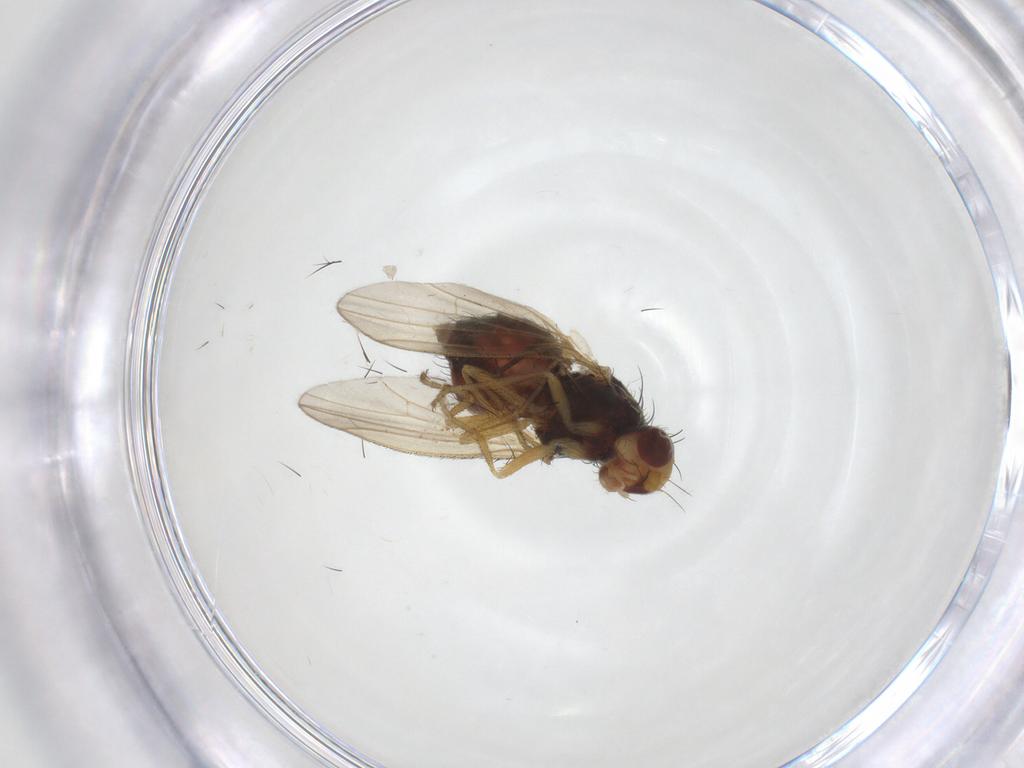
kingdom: Animalia
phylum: Arthropoda
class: Insecta
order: Diptera
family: Heleomyzidae
